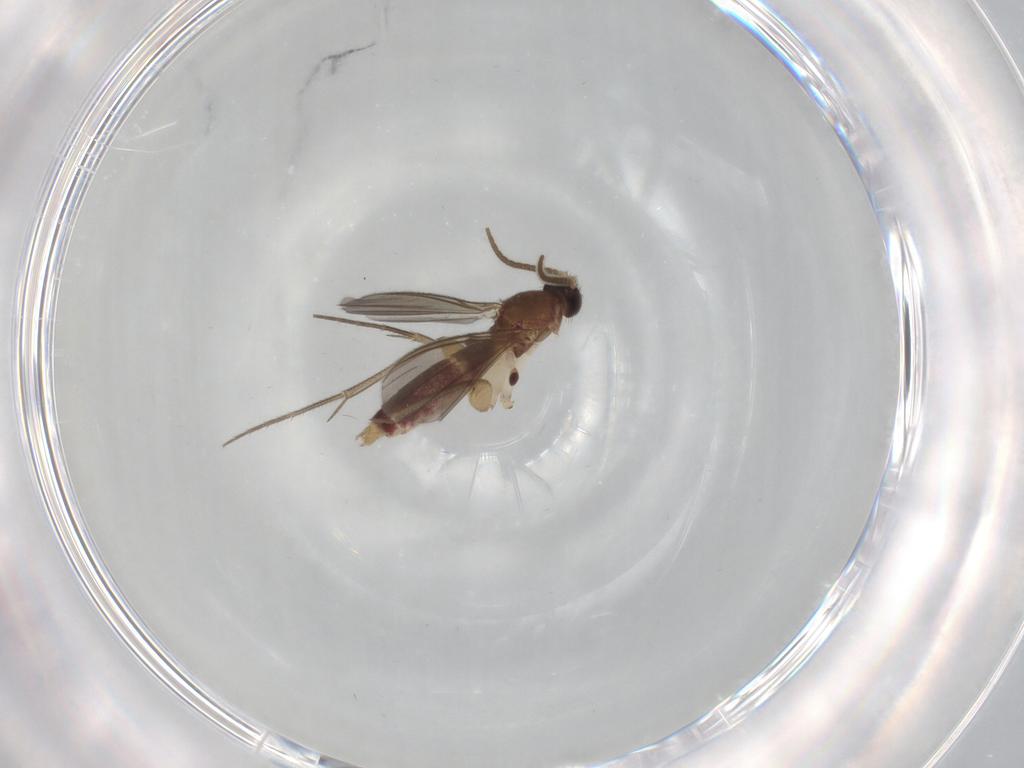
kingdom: Animalia
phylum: Arthropoda
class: Insecta
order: Diptera
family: Mycetophilidae
